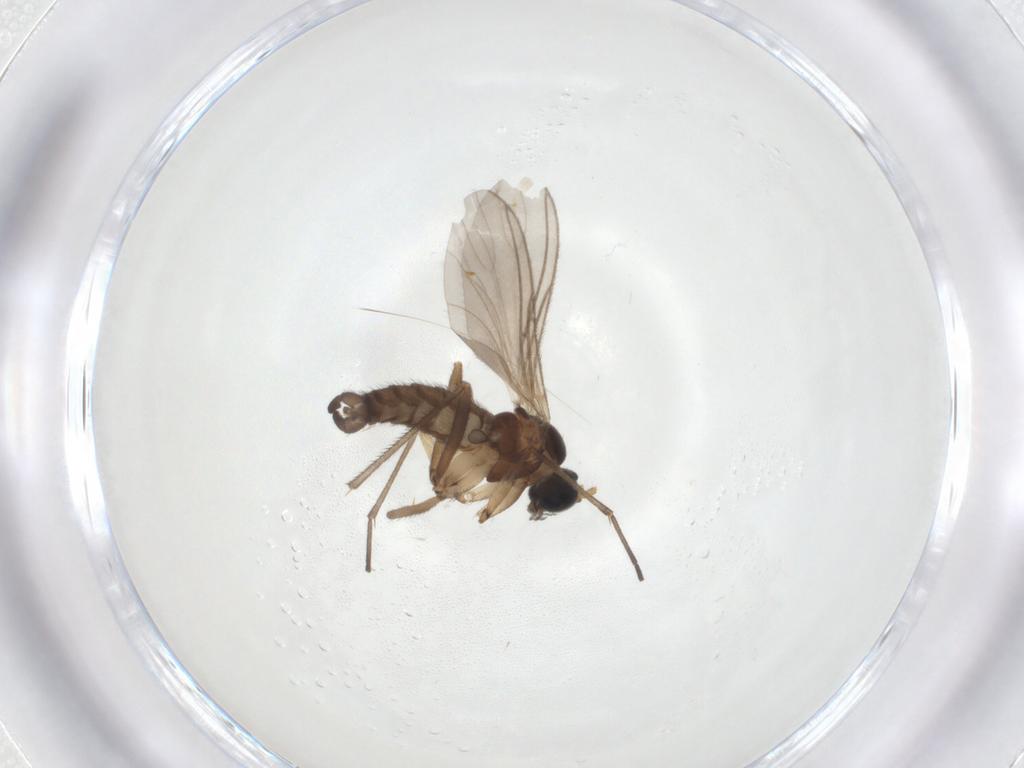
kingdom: Animalia
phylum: Arthropoda
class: Insecta
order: Diptera
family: Sciaridae
